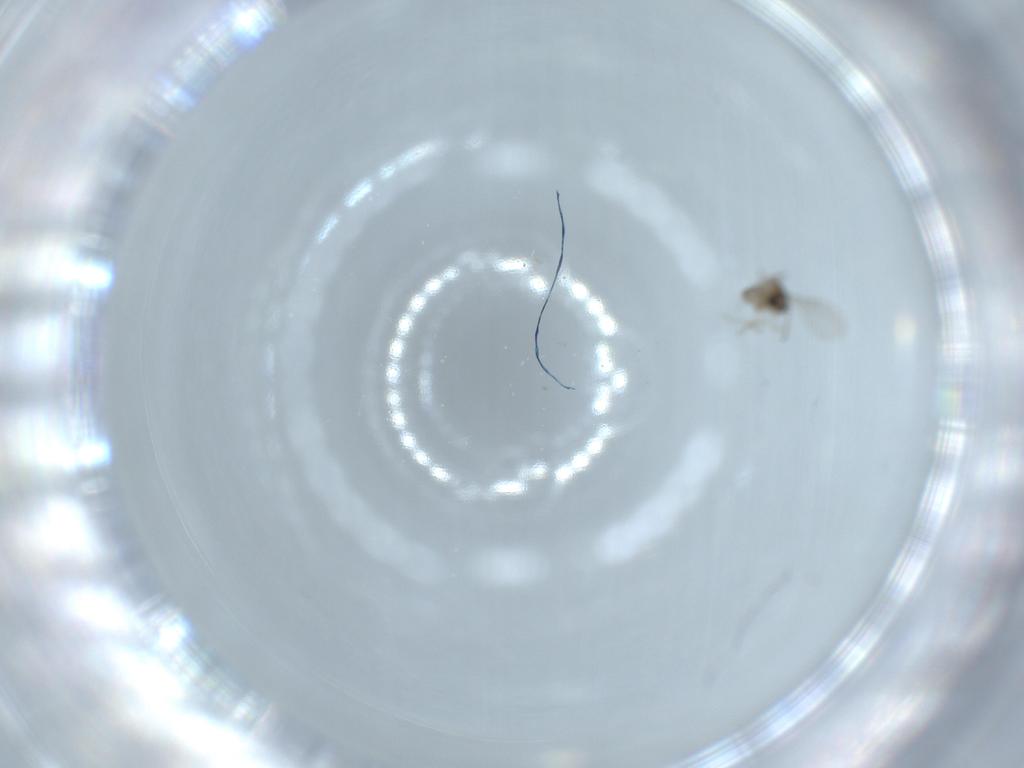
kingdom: Animalia
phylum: Arthropoda
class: Insecta
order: Diptera
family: Cecidomyiidae
